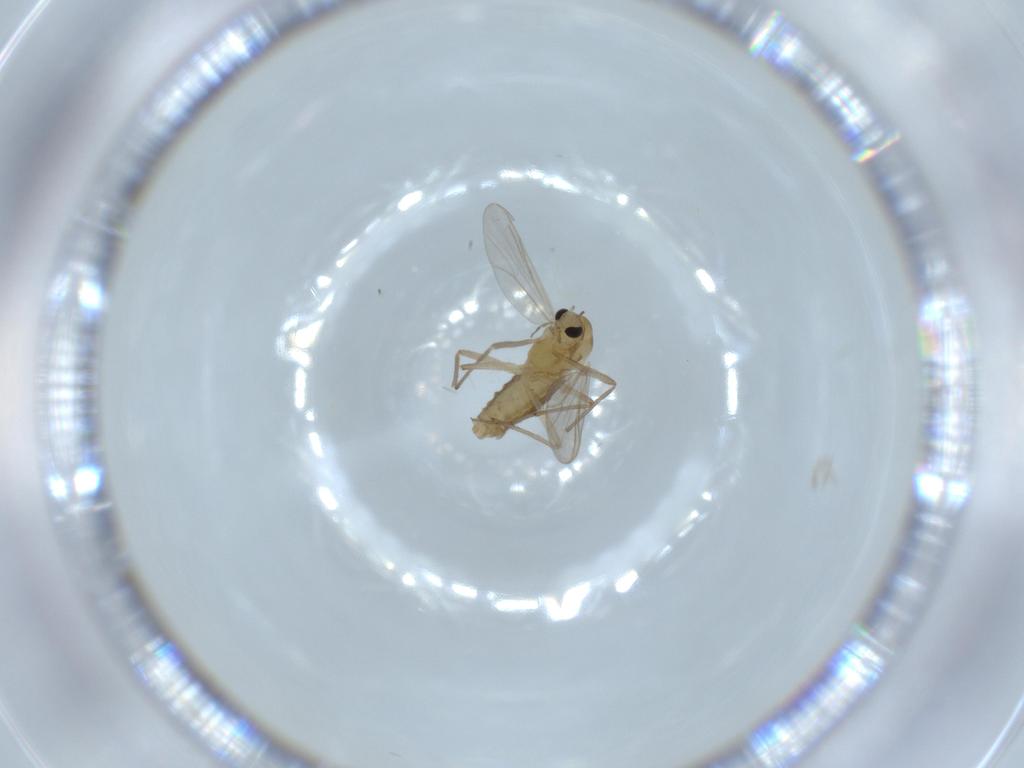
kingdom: Animalia
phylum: Arthropoda
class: Insecta
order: Diptera
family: Chironomidae
